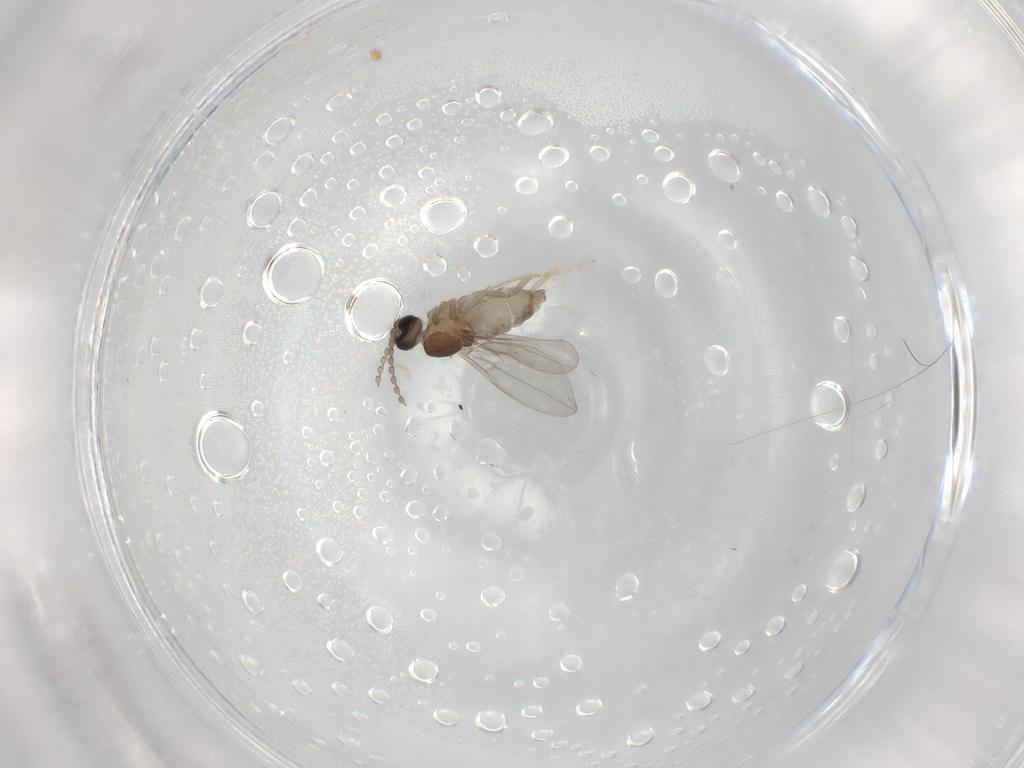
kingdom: Animalia
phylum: Arthropoda
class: Insecta
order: Diptera
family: Cecidomyiidae
